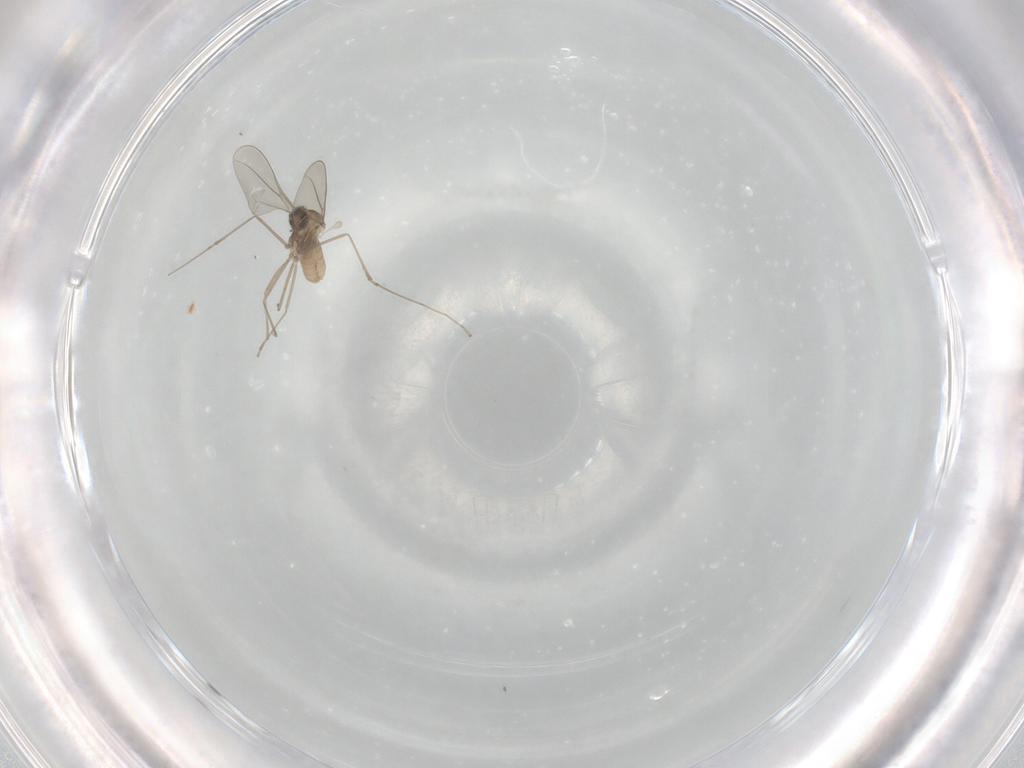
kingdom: Animalia
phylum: Arthropoda
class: Insecta
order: Diptera
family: Cecidomyiidae
